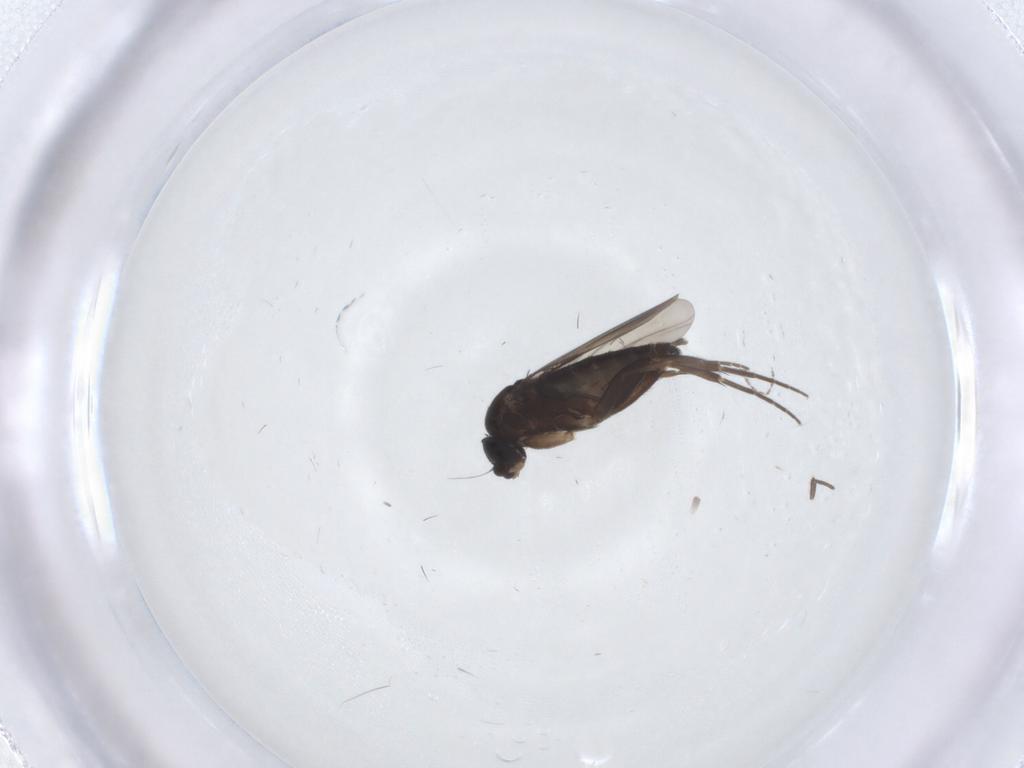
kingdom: Animalia
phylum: Arthropoda
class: Insecta
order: Diptera
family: Phoridae
